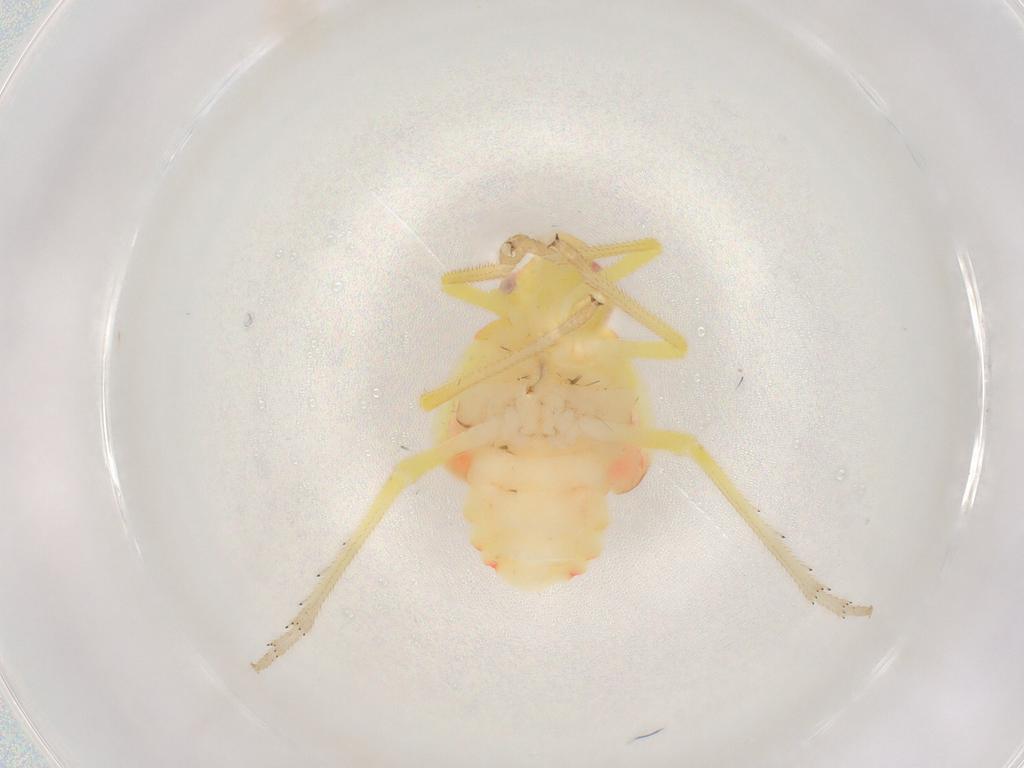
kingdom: Animalia
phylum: Arthropoda
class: Insecta
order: Hemiptera
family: Tropiduchidae
